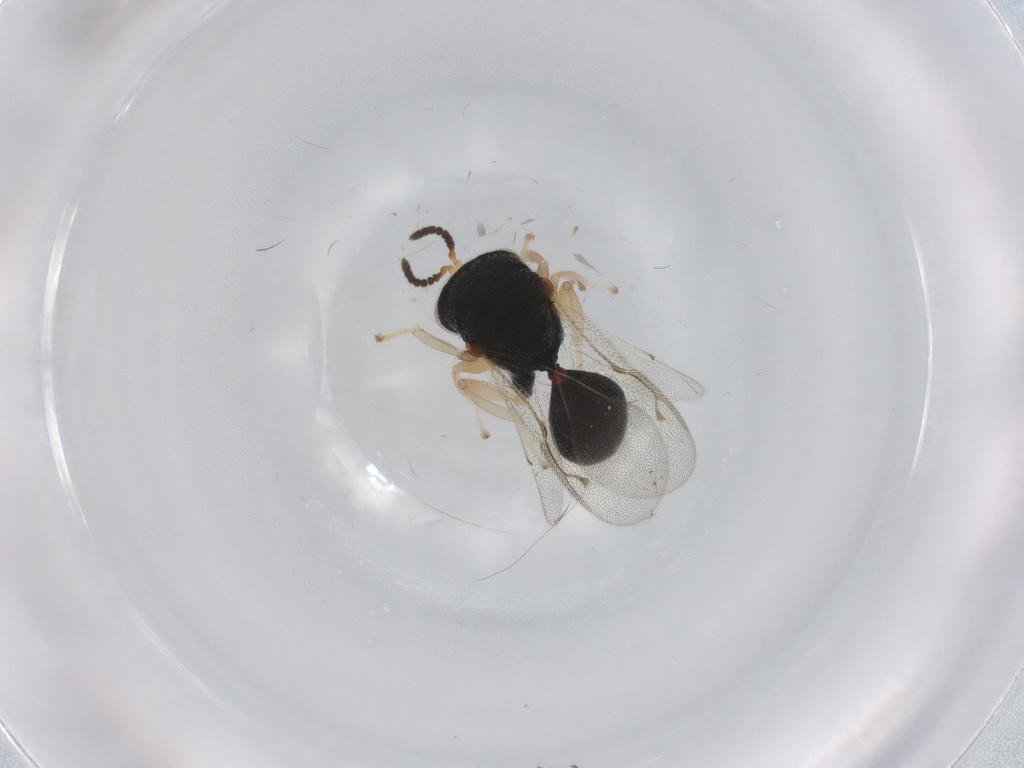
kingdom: Animalia
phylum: Arthropoda
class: Insecta
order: Hymenoptera
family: Eurytomidae
